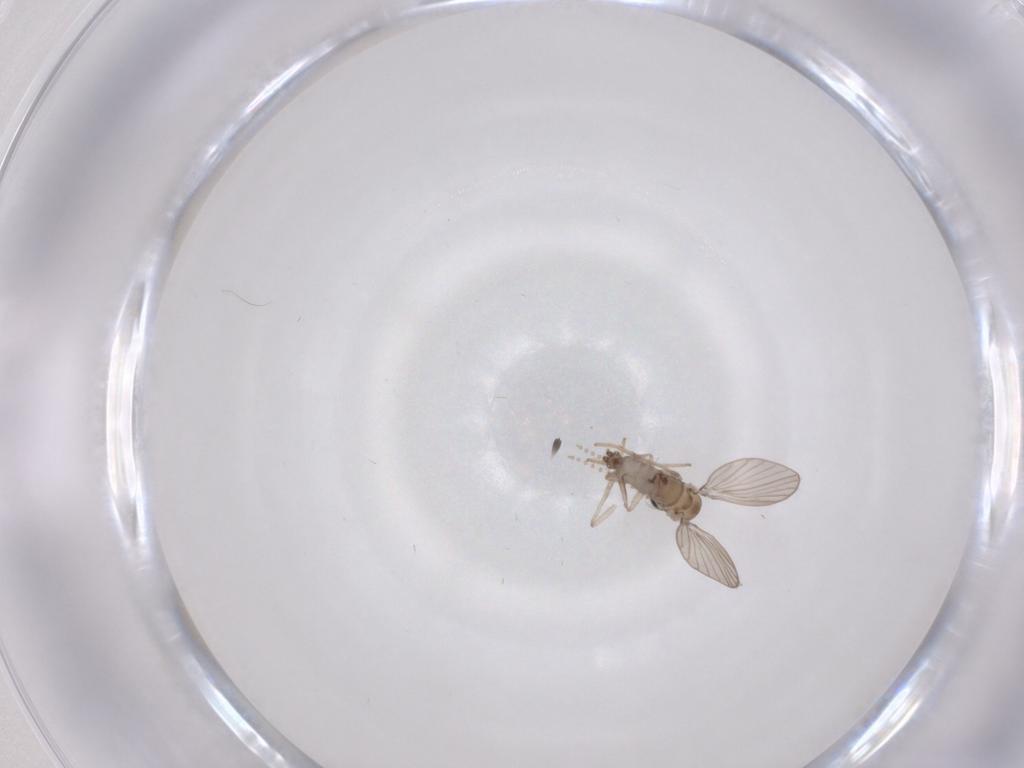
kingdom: Animalia
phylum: Arthropoda
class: Insecta
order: Diptera
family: Psychodidae
